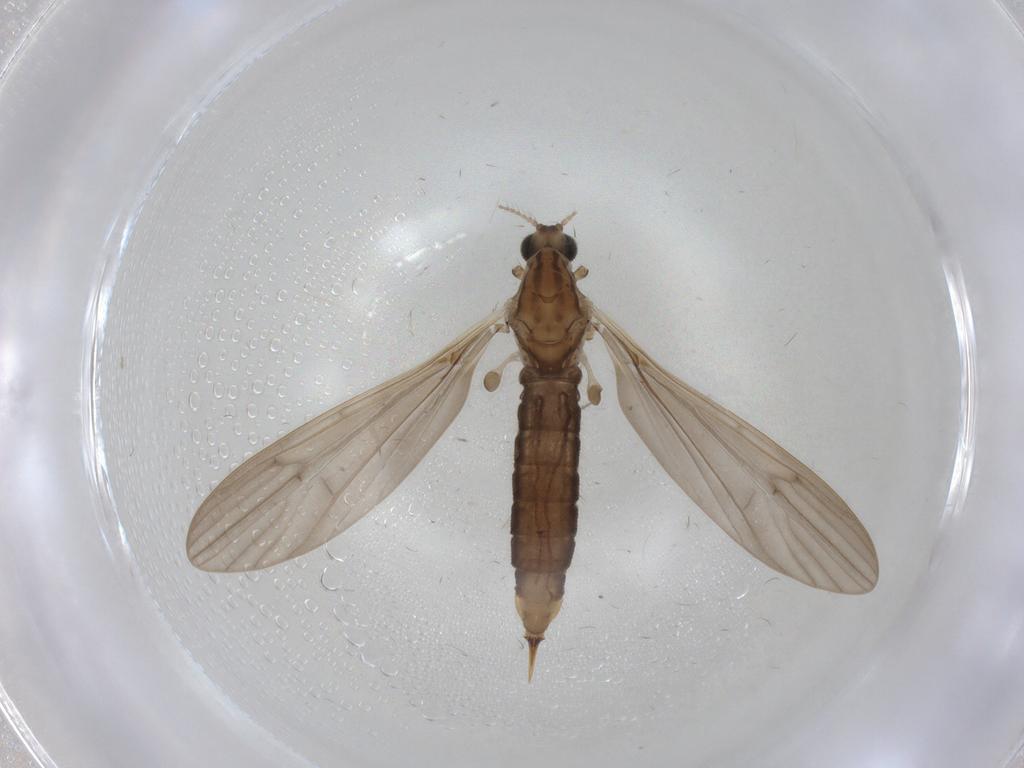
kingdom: Animalia
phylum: Arthropoda
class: Insecta
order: Diptera
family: Limoniidae
